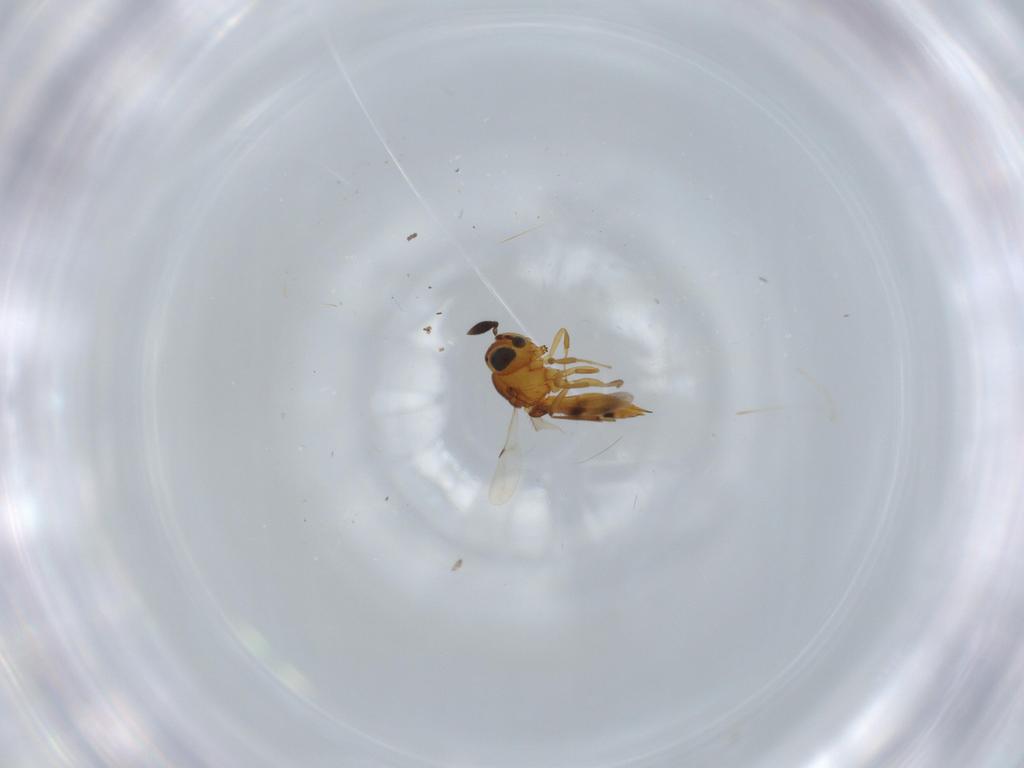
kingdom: Animalia
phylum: Arthropoda
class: Insecta
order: Hymenoptera
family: Scelionidae
